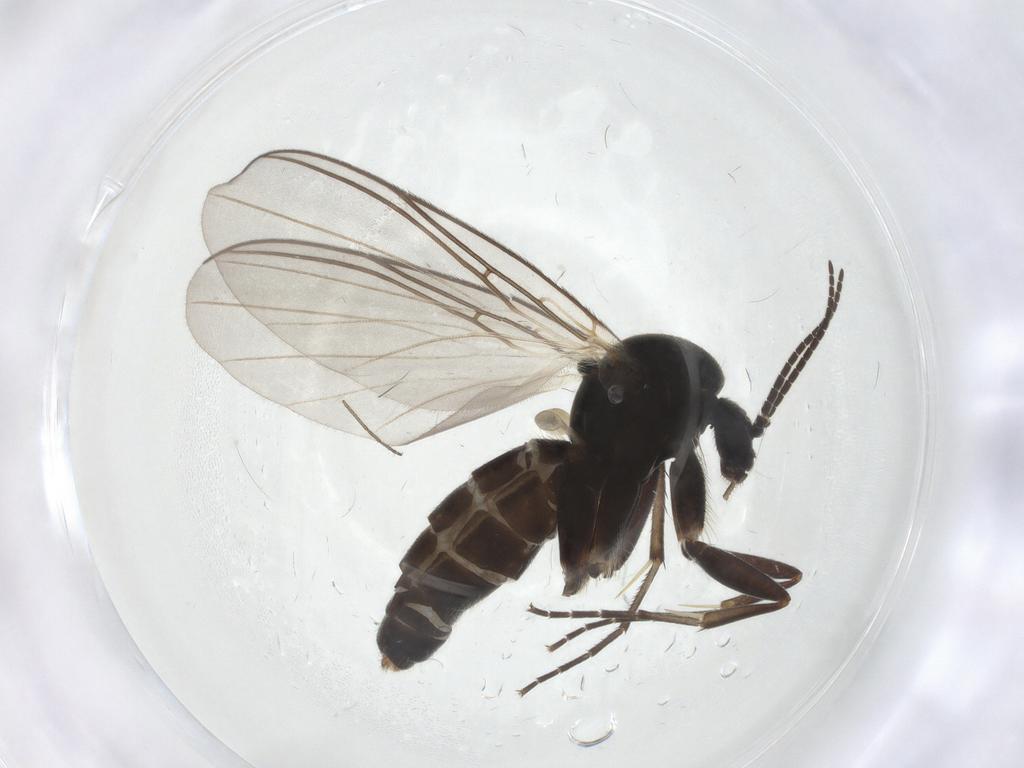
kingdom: Animalia
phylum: Arthropoda
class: Insecta
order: Diptera
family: Mycetophilidae
